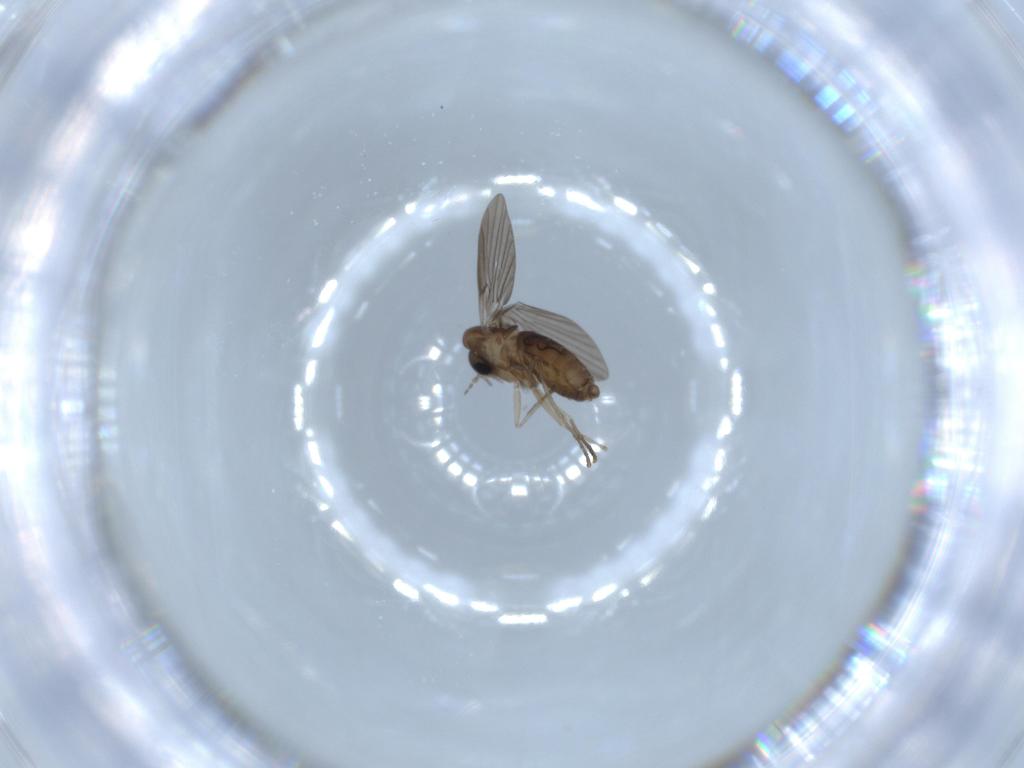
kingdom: Animalia
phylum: Arthropoda
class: Insecta
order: Diptera
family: Psychodidae
